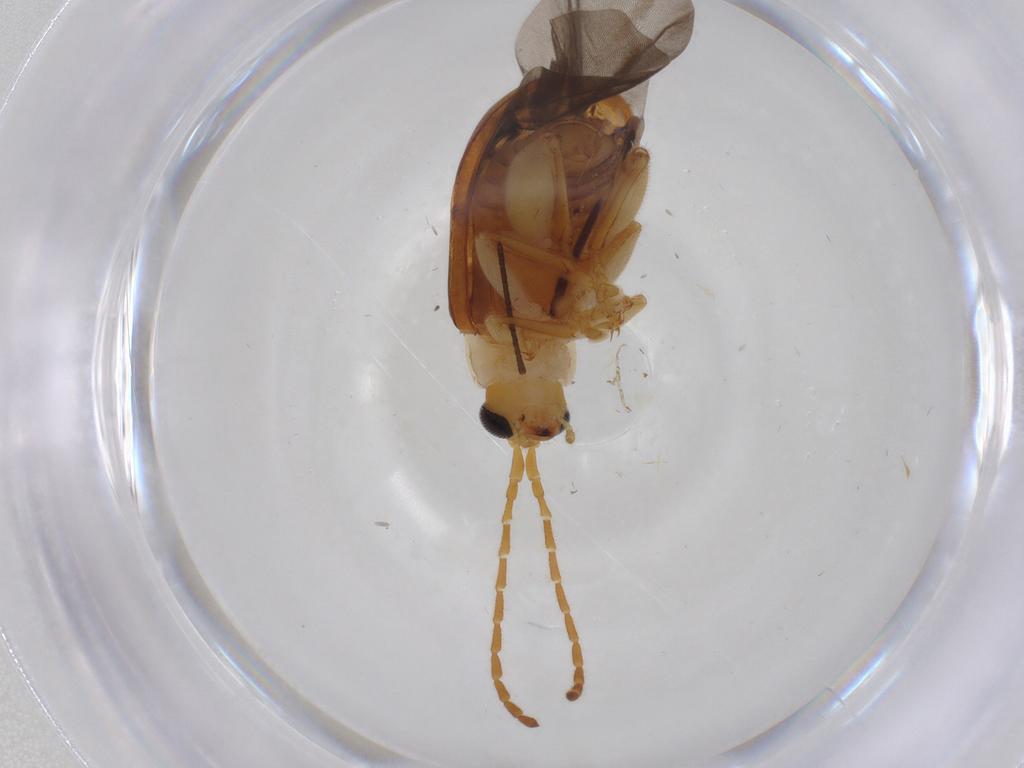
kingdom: Animalia
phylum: Arthropoda
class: Insecta
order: Coleoptera
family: Chrysomelidae
